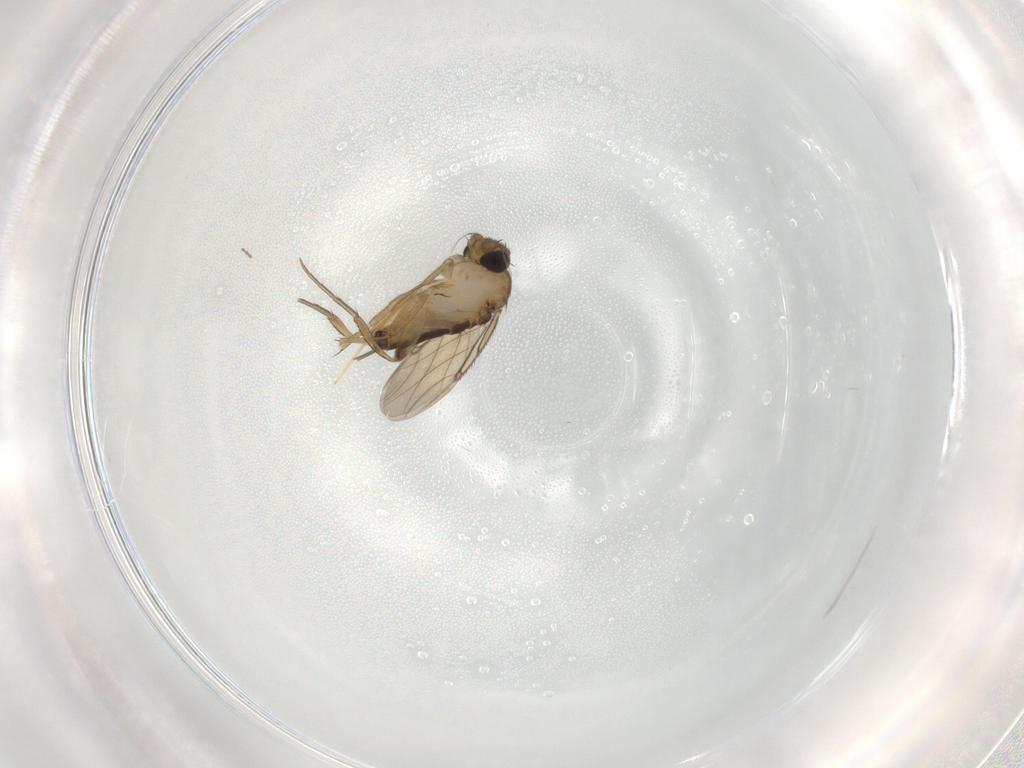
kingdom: Animalia
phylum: Arthropoda
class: Insecta
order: Diptera
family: Phoridae
